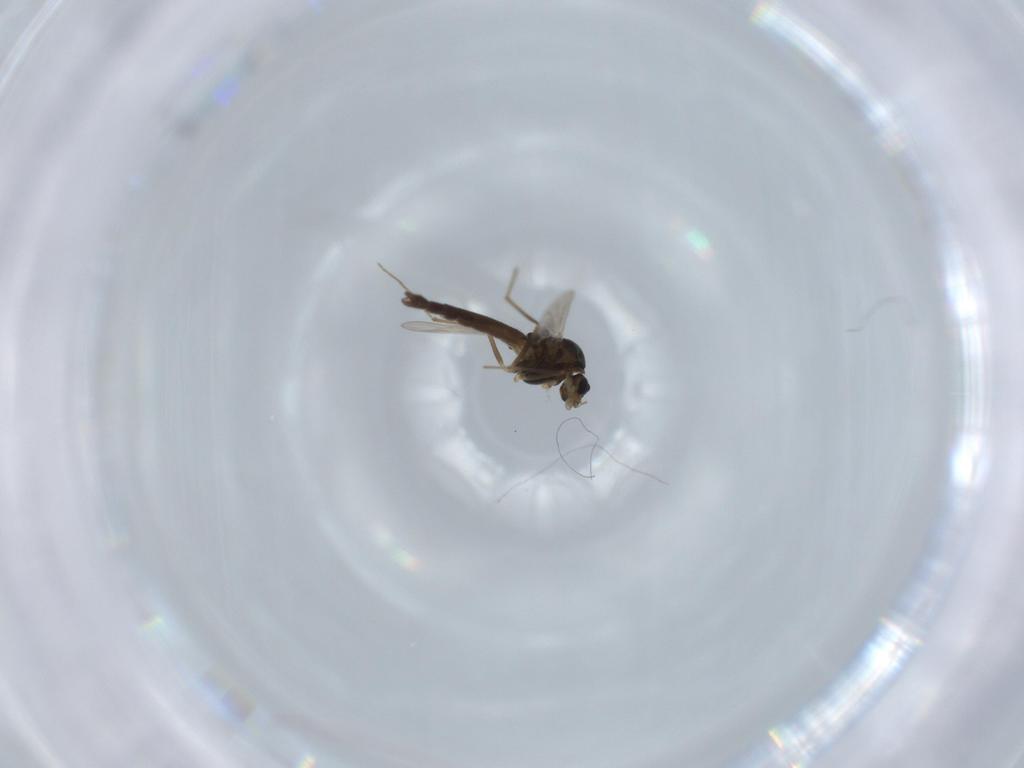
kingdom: Animalia
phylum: Arthropoda
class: Insecta
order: Diptera
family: Chironomidae
